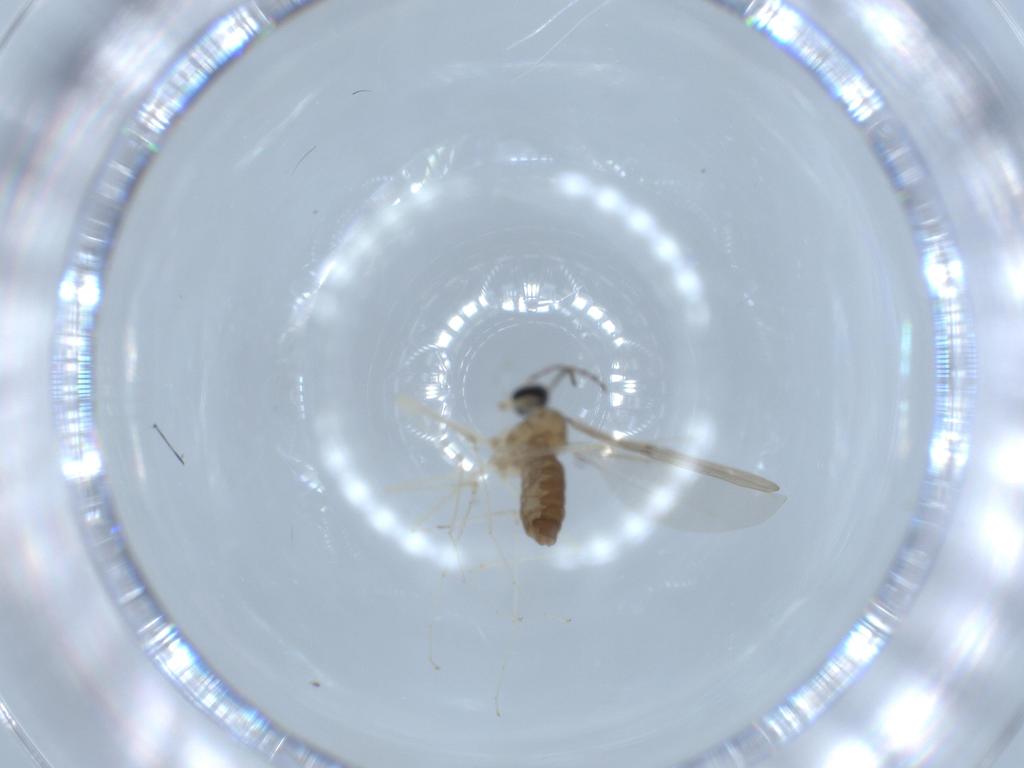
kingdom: Animalia
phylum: Arthropoda
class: Insecta
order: Diptera
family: Cecidomyiidae
